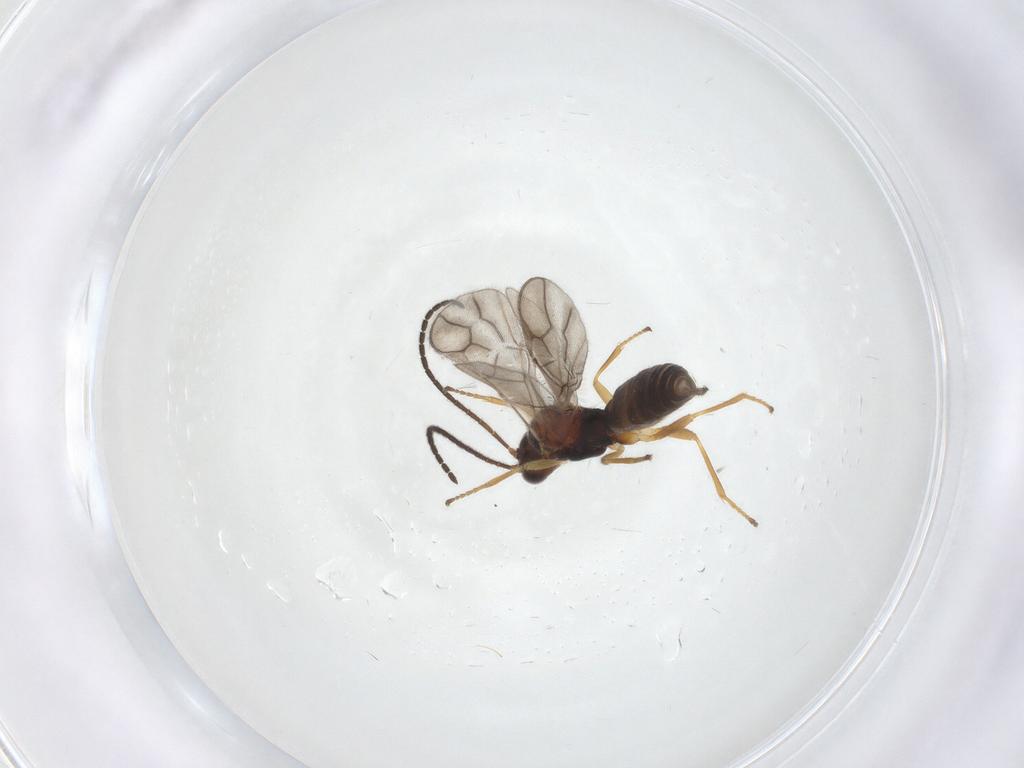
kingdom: Animalia
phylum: Arthropoda
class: Insecta
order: Hymenoptera
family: Braconidae
